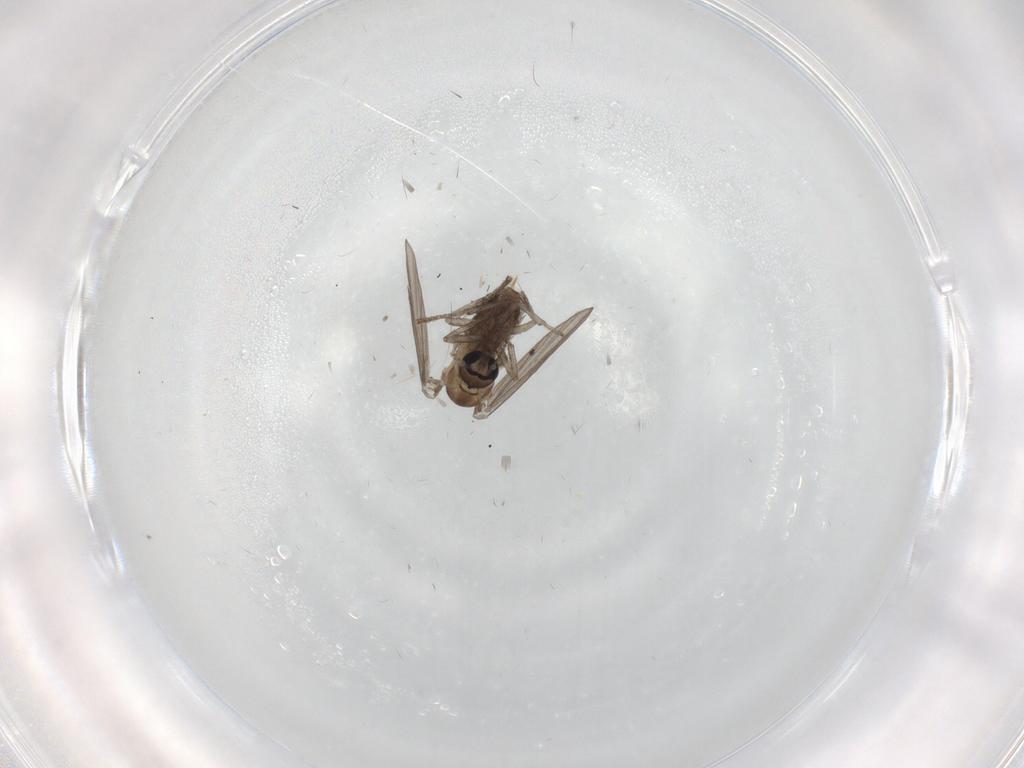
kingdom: Animalia
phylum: Arthropoda
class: Insecta
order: Diptera
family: Psychodidae
